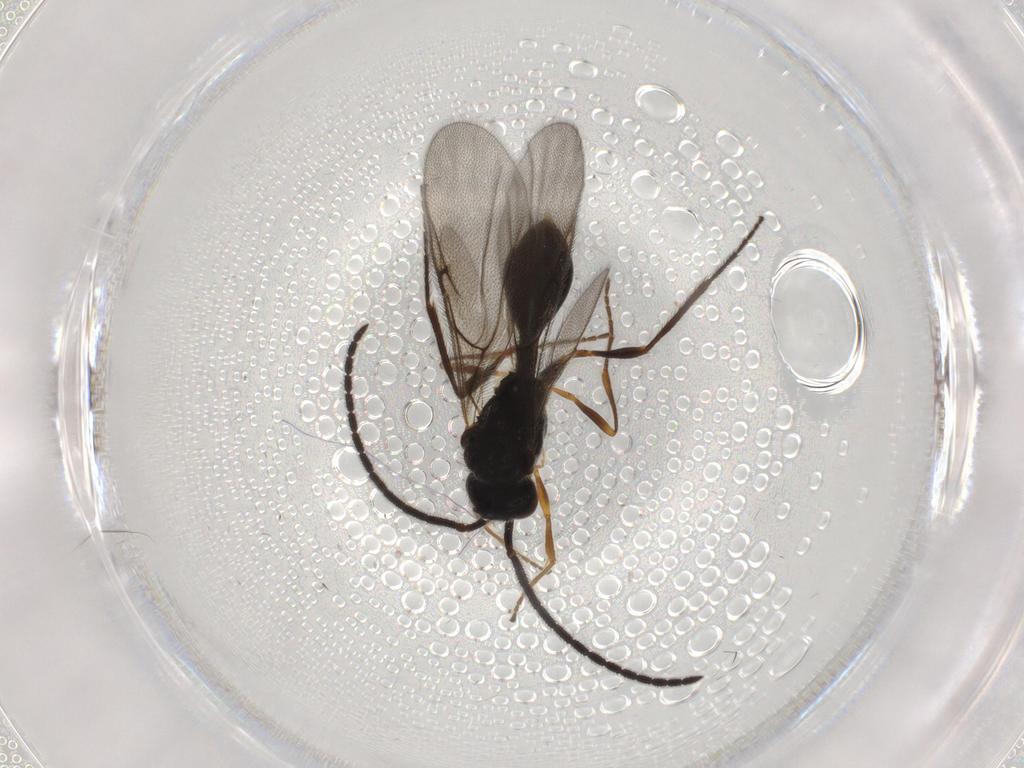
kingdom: Animalia
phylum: Arthropoda
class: Insecta
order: Hymenoptera
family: Diapriidae
